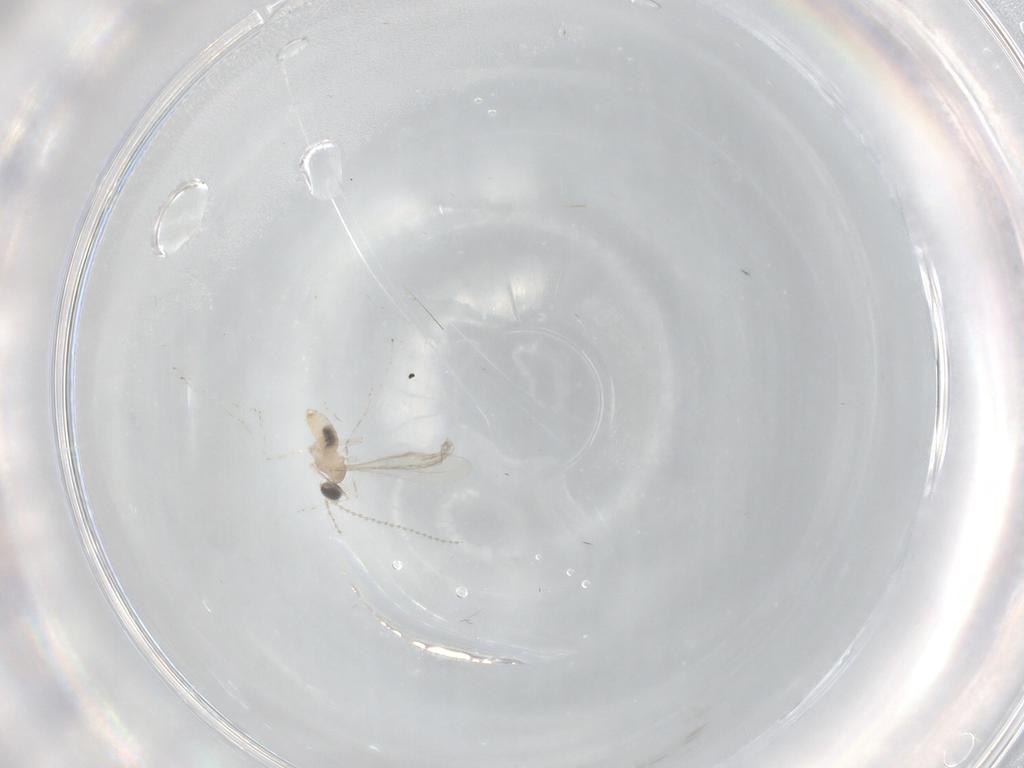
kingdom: Animalia
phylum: Arthropoda
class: Insecta
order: Diptera
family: Cecidomyiidae
